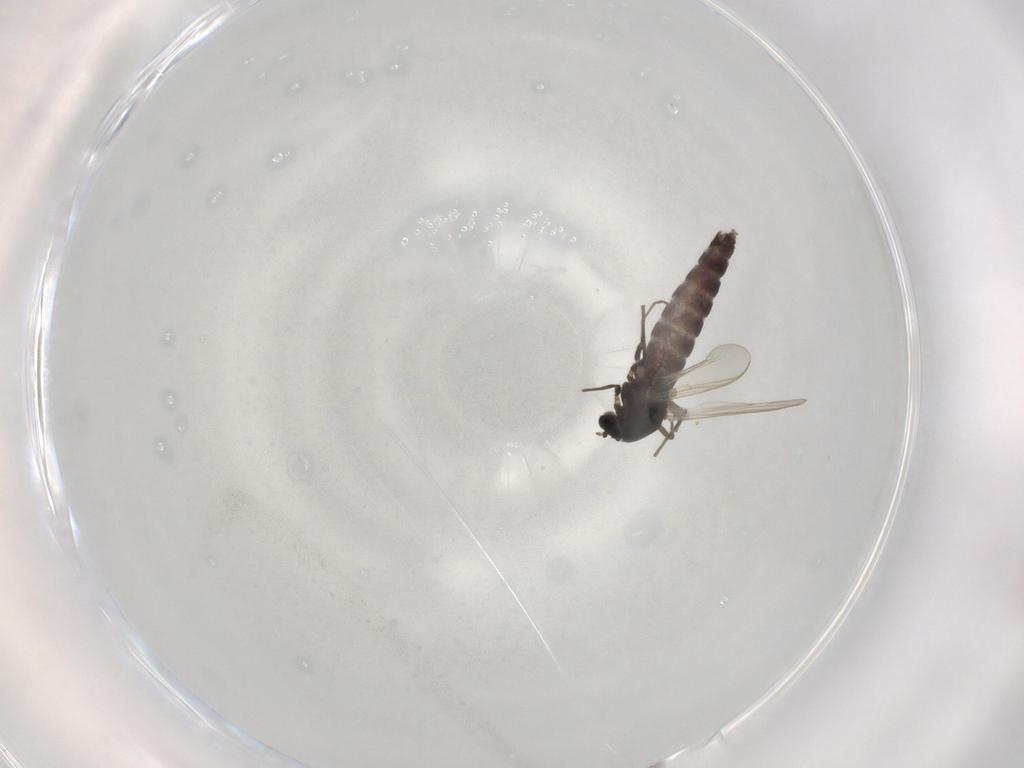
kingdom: Animalia
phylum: Arthropoda
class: Insecta
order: Diptera
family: Chironomidae
